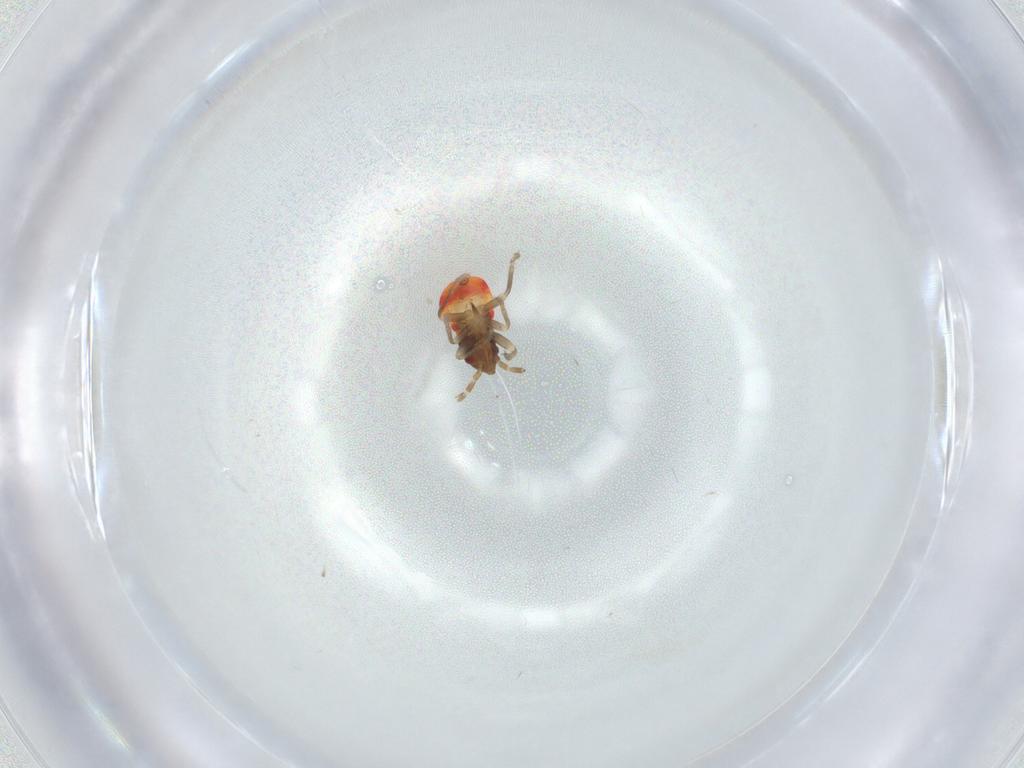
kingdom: Animalia
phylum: Arthropoda
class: Insecta
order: Hemiptera
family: Rhyparochromidae
